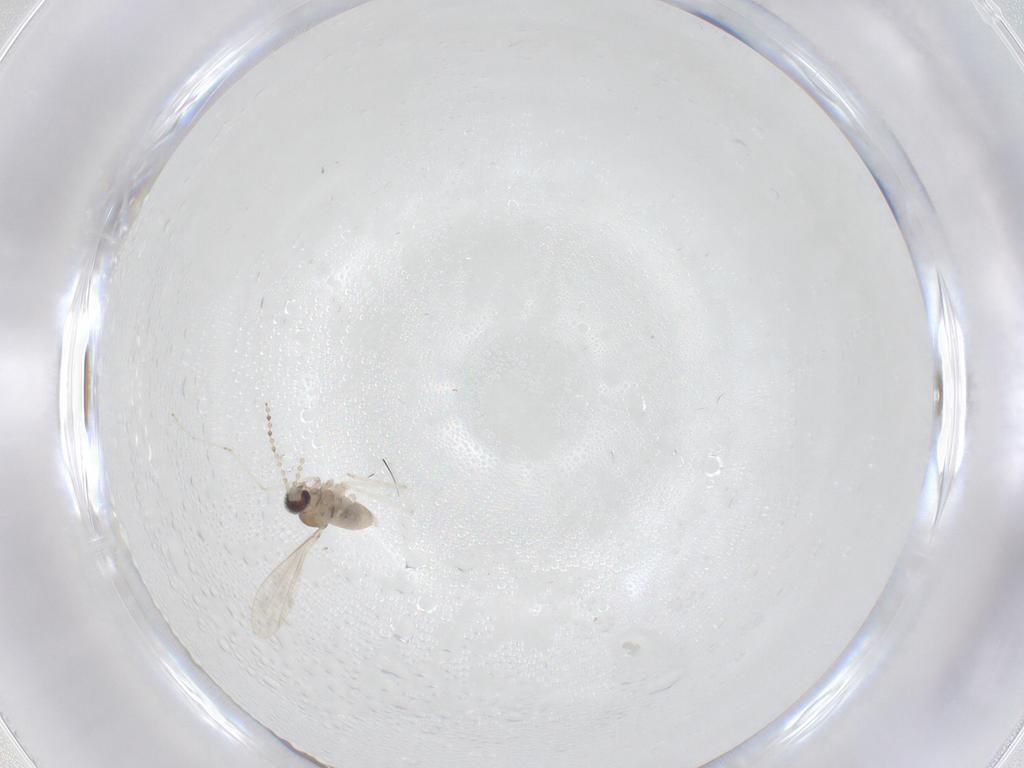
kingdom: Animalia
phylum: Arthropoda
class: Insecta
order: Diptera
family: Cecidomyiidae
